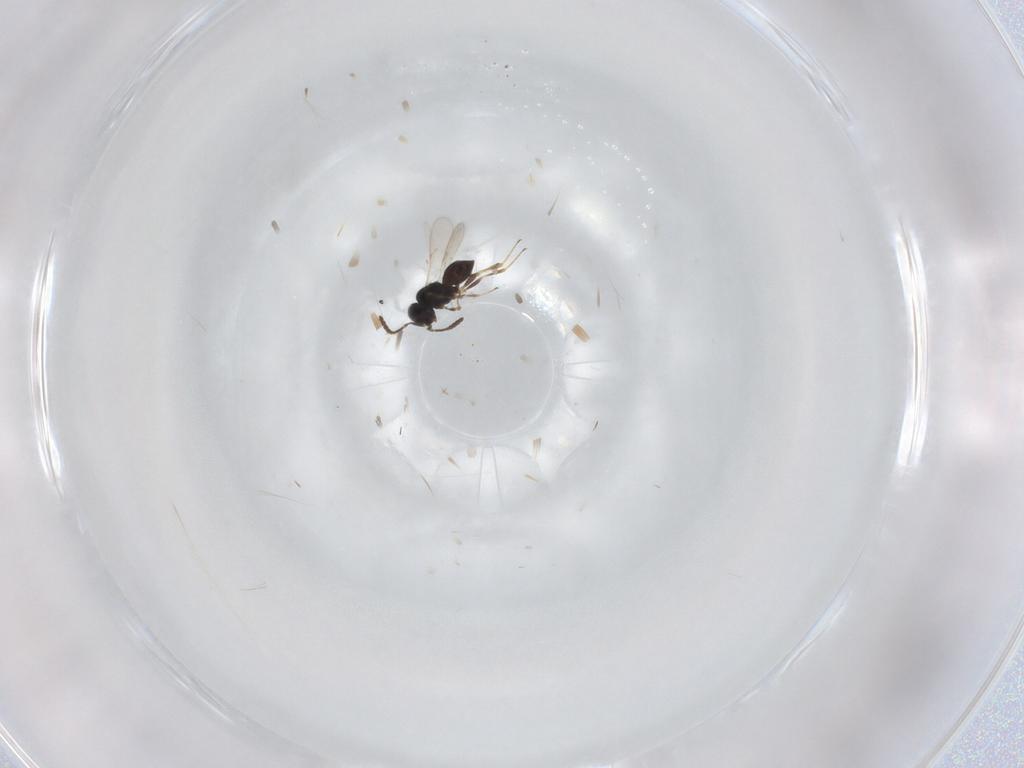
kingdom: Animalia
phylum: Arthropoda
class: Insecta
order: Hymenoptera
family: Scelionidae
